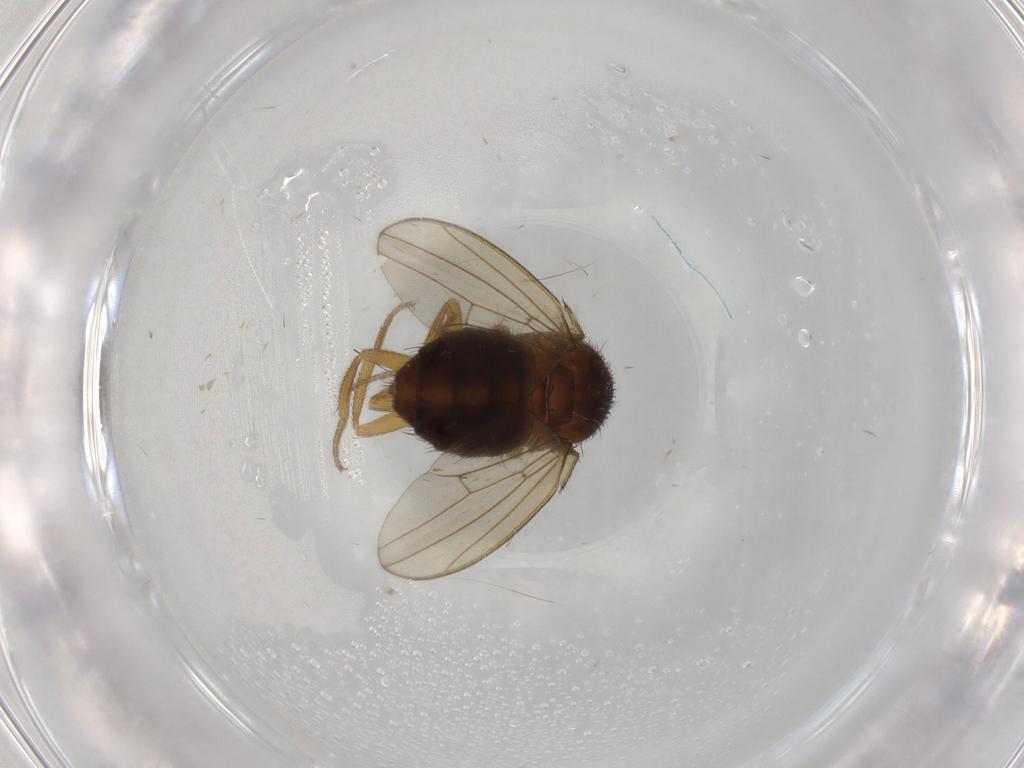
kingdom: Animalia
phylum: Arthropoda
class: Insecta
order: Diptera
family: Drosophilidae
